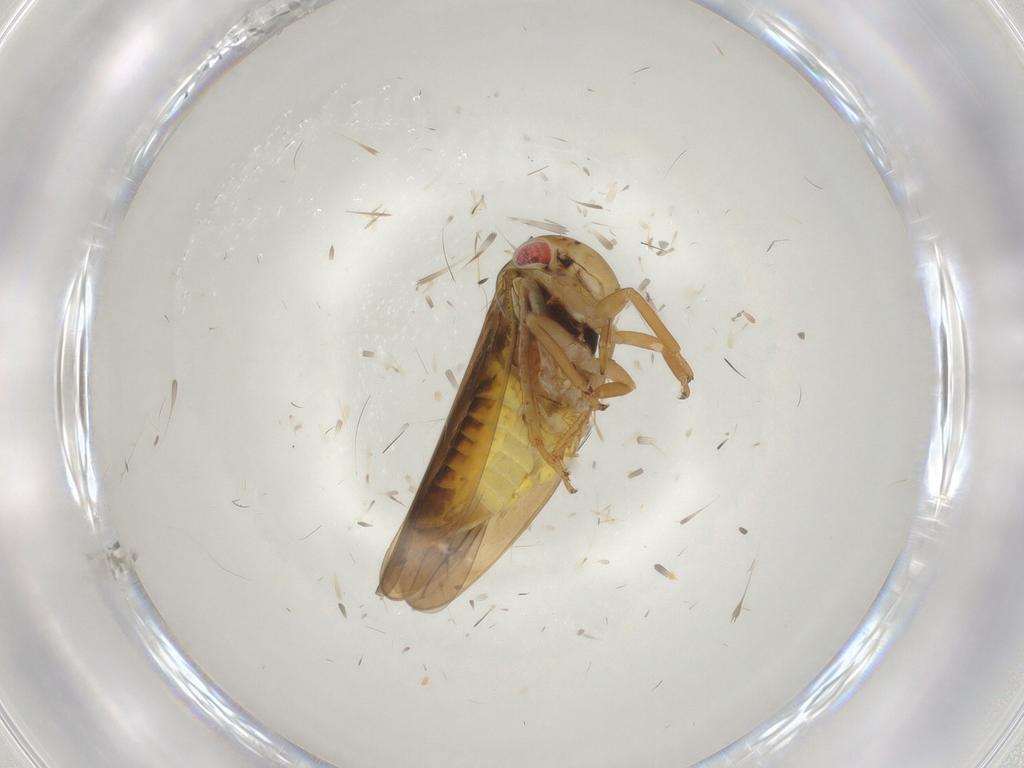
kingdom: Animalia
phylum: Arthropoda
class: Insecta
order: Hemiptera
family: Cicadellidae
